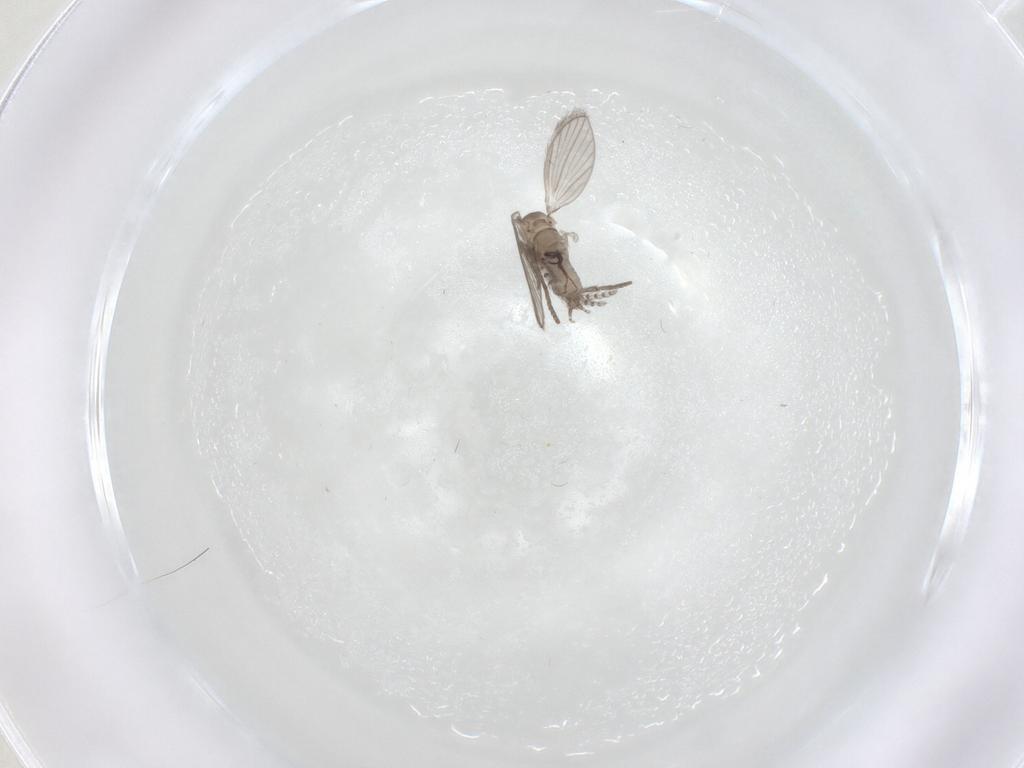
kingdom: Animalia
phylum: Arthropoda
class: Insecta
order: Diptera
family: Psychodidae
